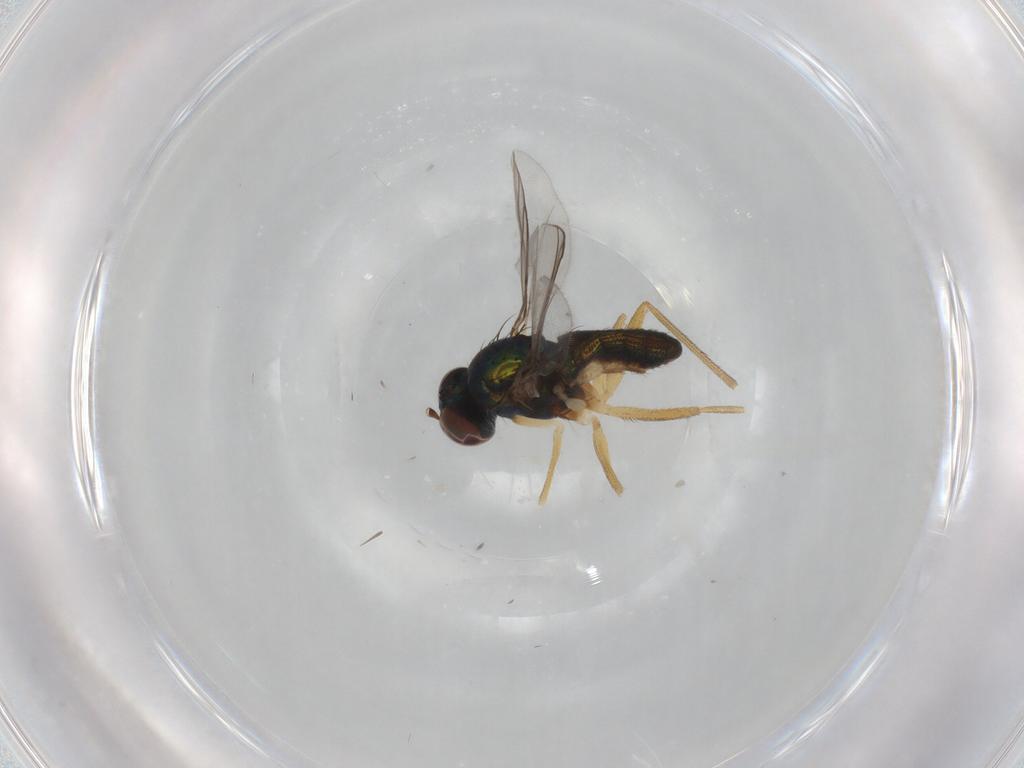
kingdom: Animalia
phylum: Arthropoda
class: Insecta
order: Diptera
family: Dolichopodidae
